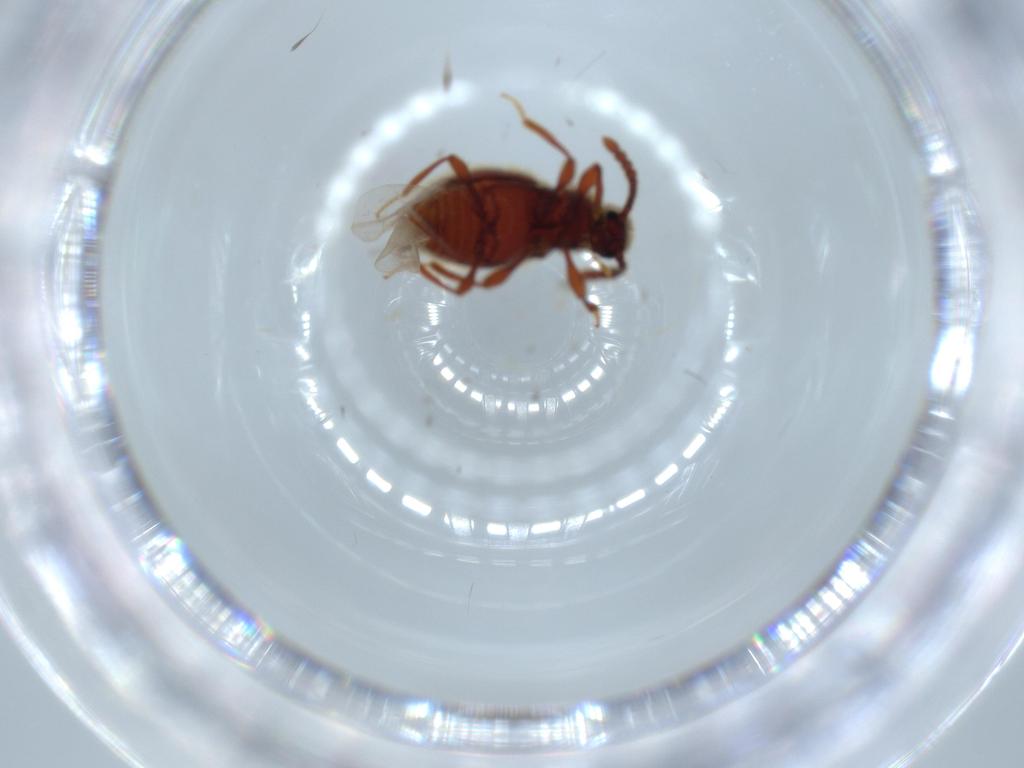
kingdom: Animalia
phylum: Arthropoda
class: Insecta
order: Coleoptera
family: Staphylinidae
